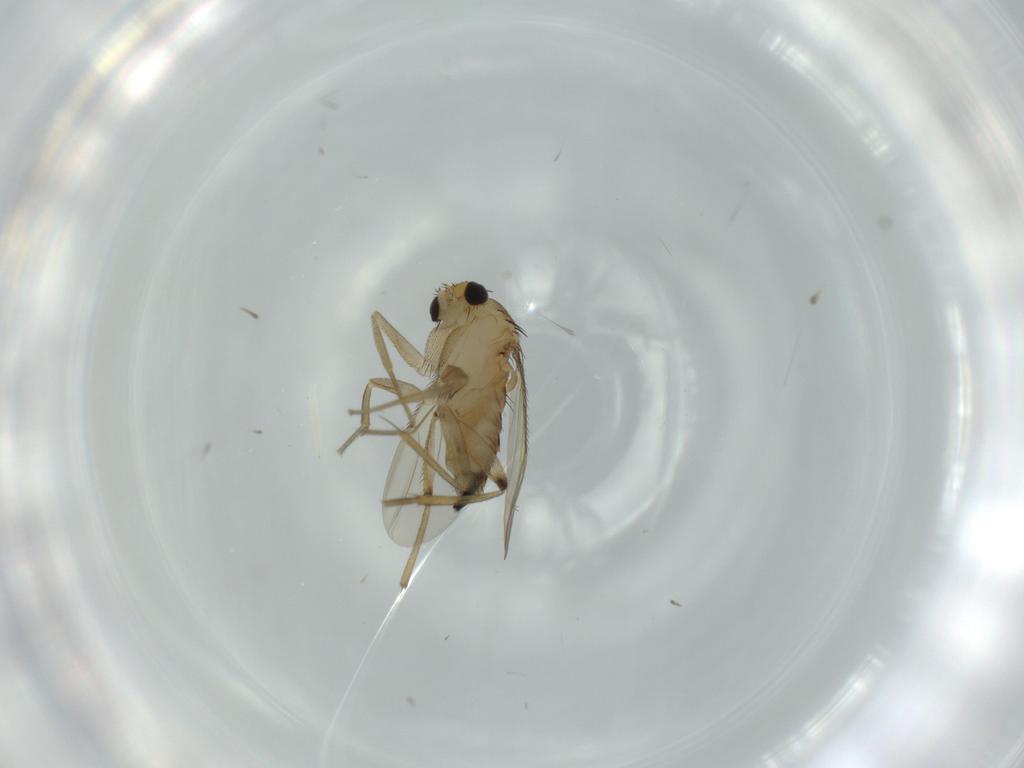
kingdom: Animalia
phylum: Arthropoda
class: Insecta
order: Diptera
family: Phoridae
